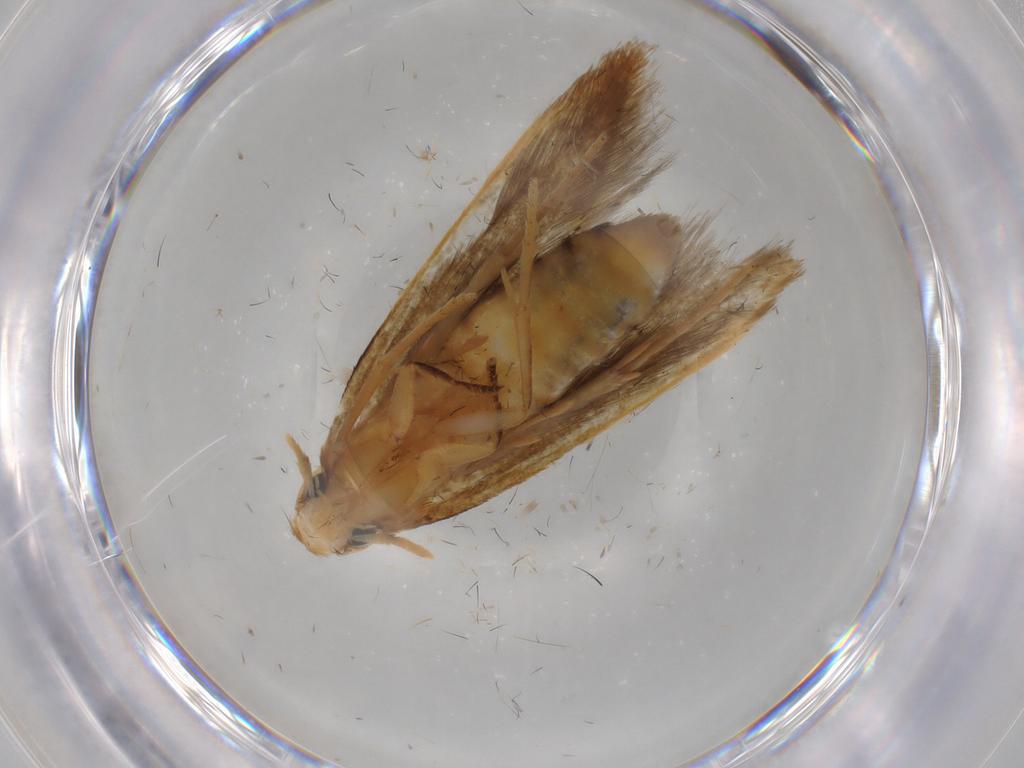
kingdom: Animalia
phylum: Arthropoda
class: Insecta
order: Lepidoptera
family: Tineidae
